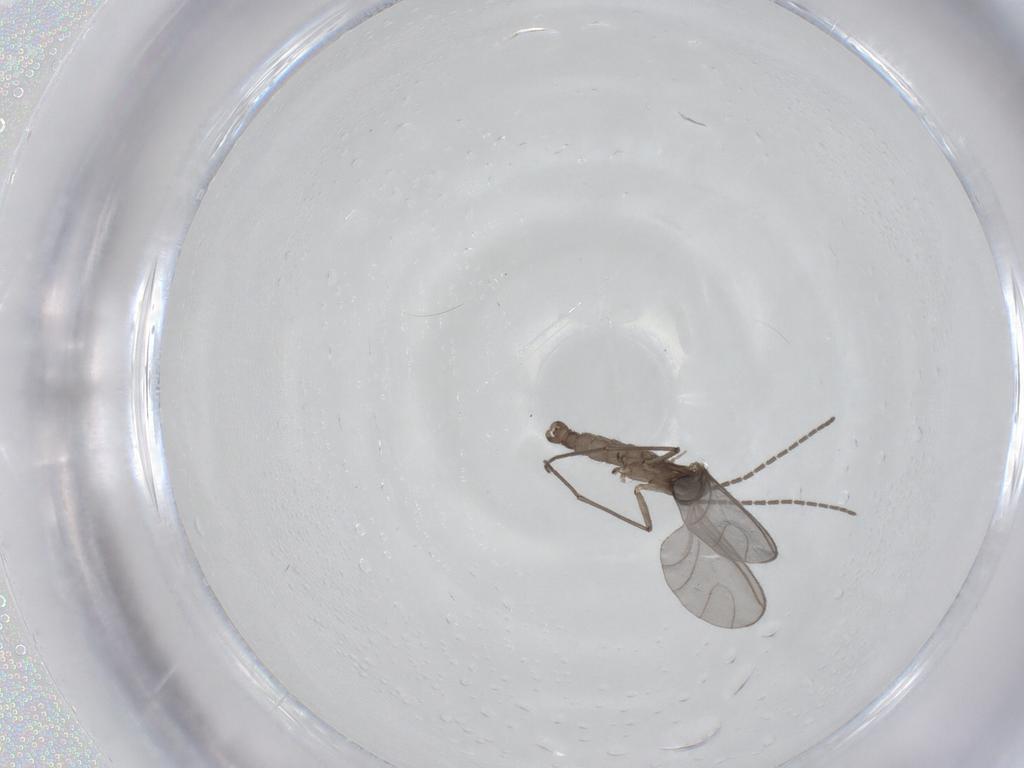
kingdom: Animalia
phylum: Arthropoda
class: Insecta
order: Diptera
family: Sciaridae
